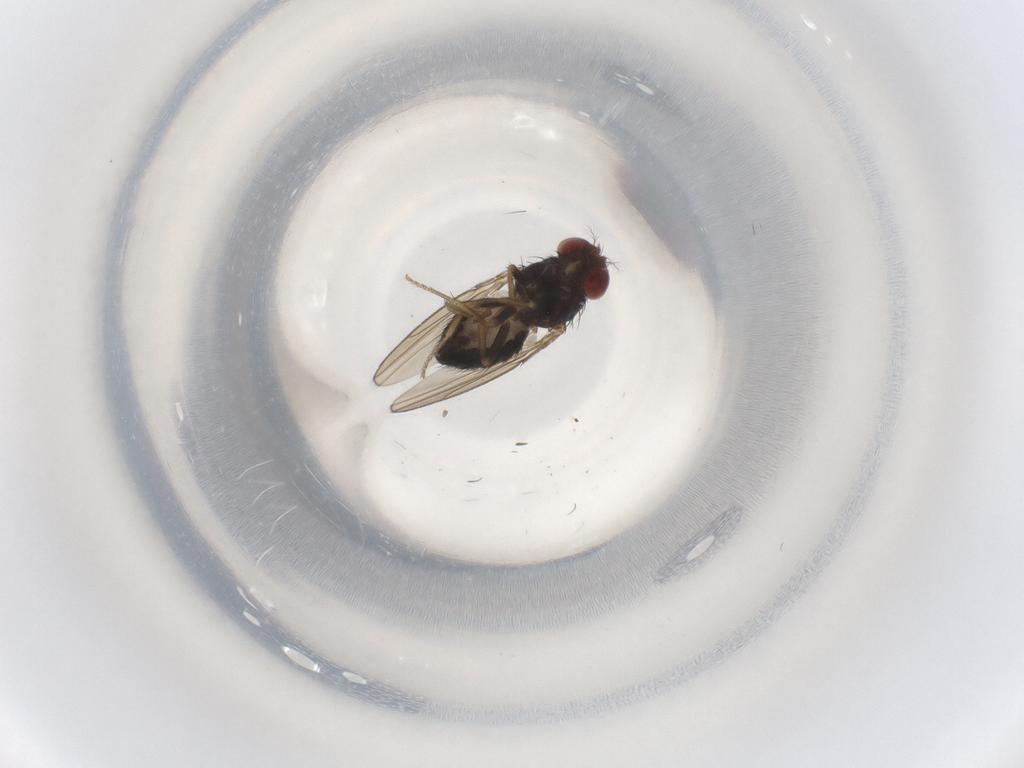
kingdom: Animalia
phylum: Arthropoda
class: Insecta
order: Diptera
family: Drosophilidae
